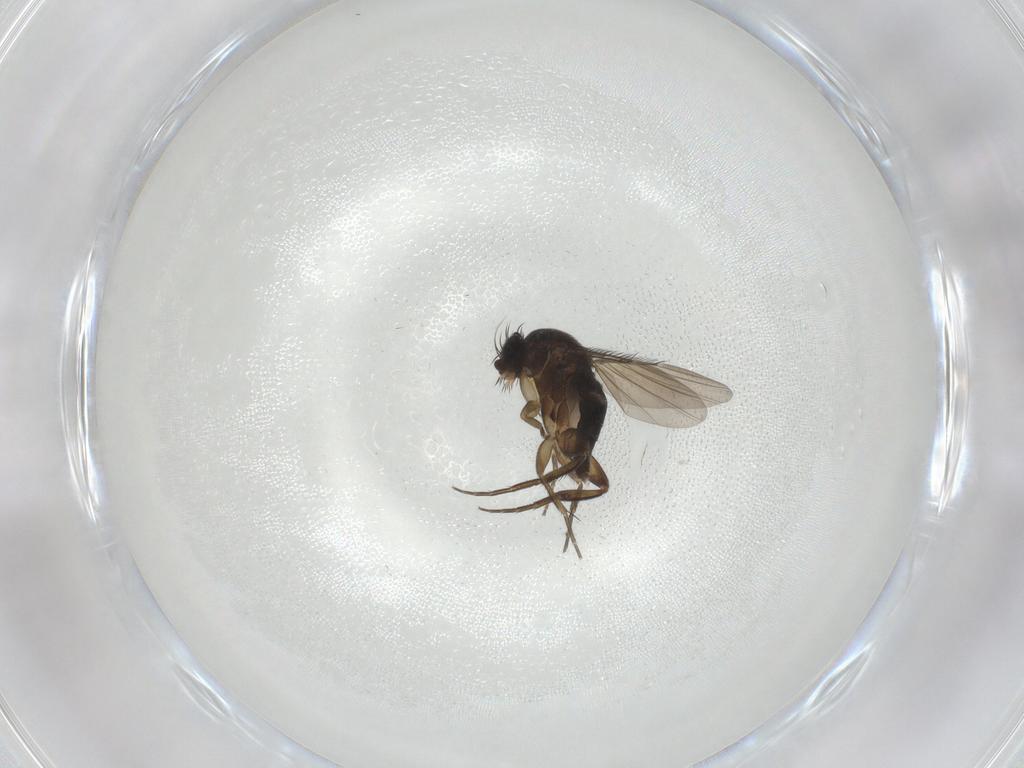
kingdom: Animalia
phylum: Arthropoda
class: Insecta
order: Diptera
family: Phoridae
